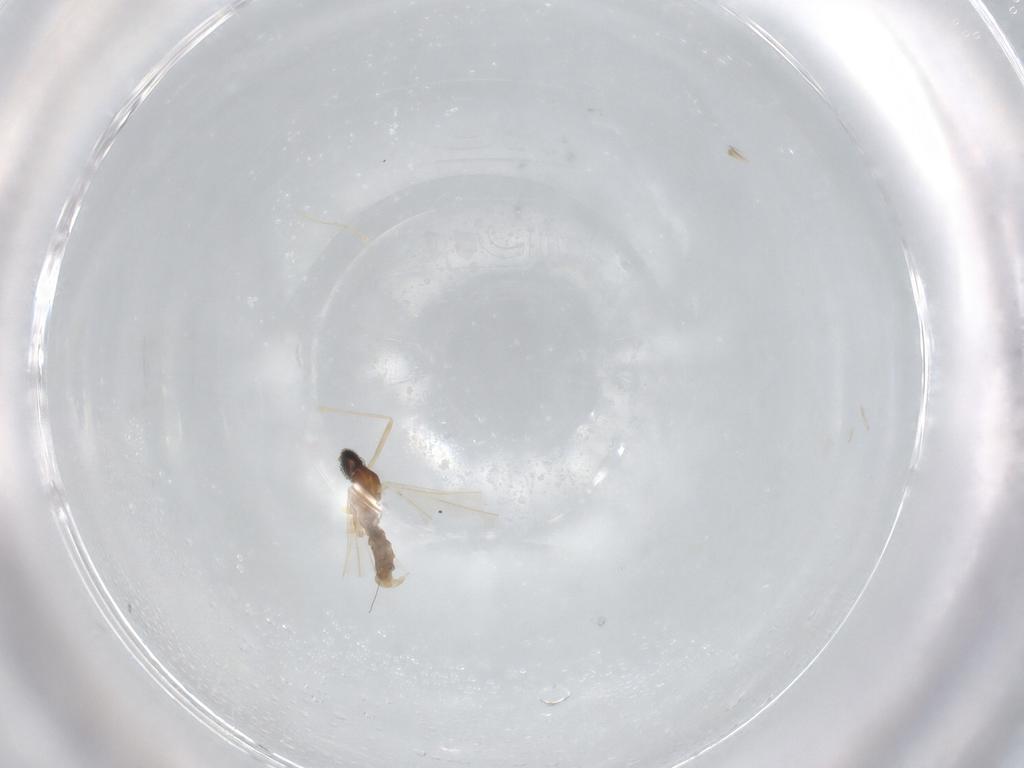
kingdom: Animalia
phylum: Arthropoda
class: Insecta
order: Diptera
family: Cecidomyiidae
